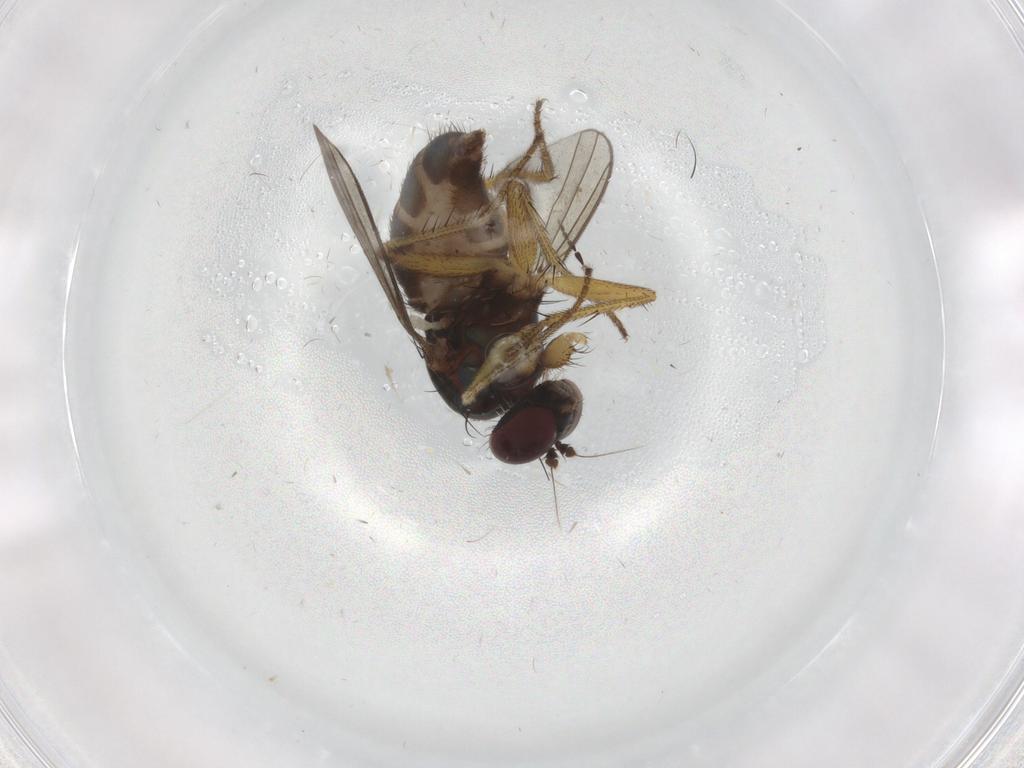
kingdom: Animalia
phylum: Arthropoda
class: Insecta
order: Diptera
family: Dolichopodidae
